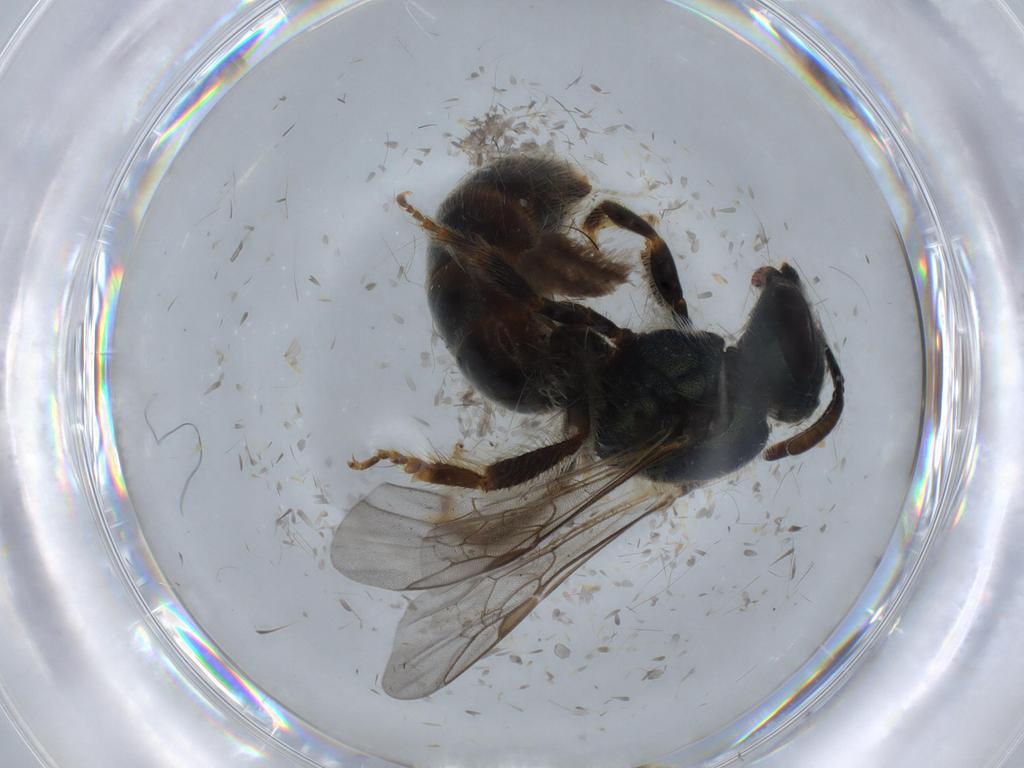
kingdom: Animalia
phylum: Arthropoda
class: Insecta
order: Hymenoptera
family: Halictidae
